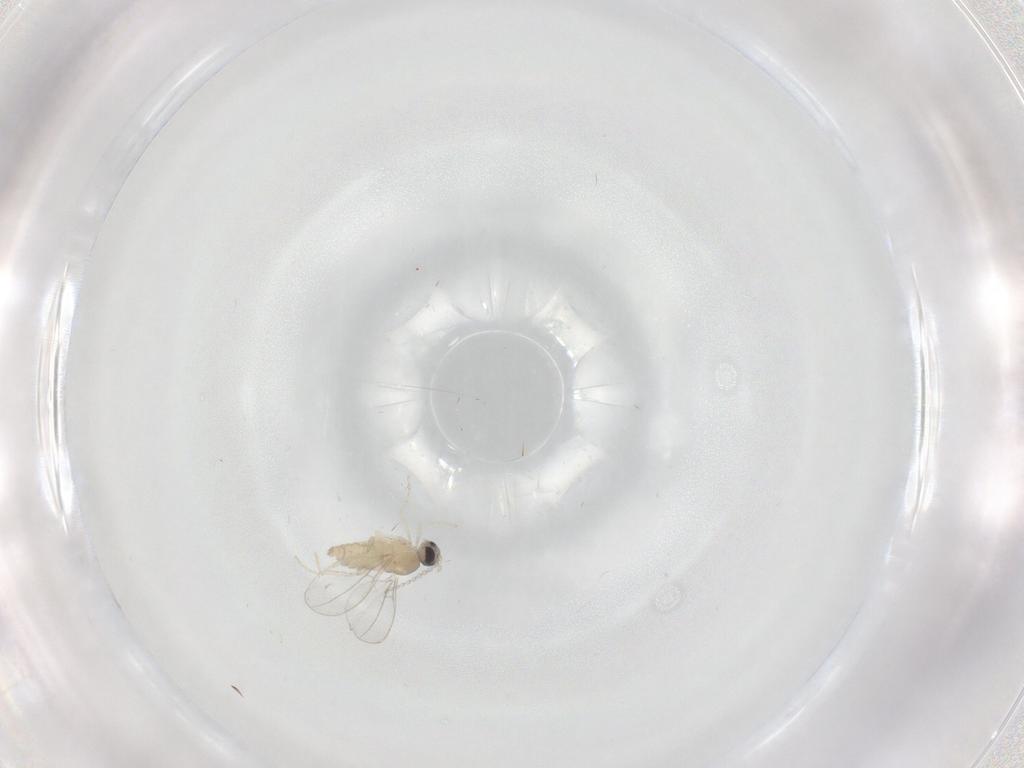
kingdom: Animalia
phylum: Arthropoda
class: Insecta
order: Diptera
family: Cecidomyiidae
